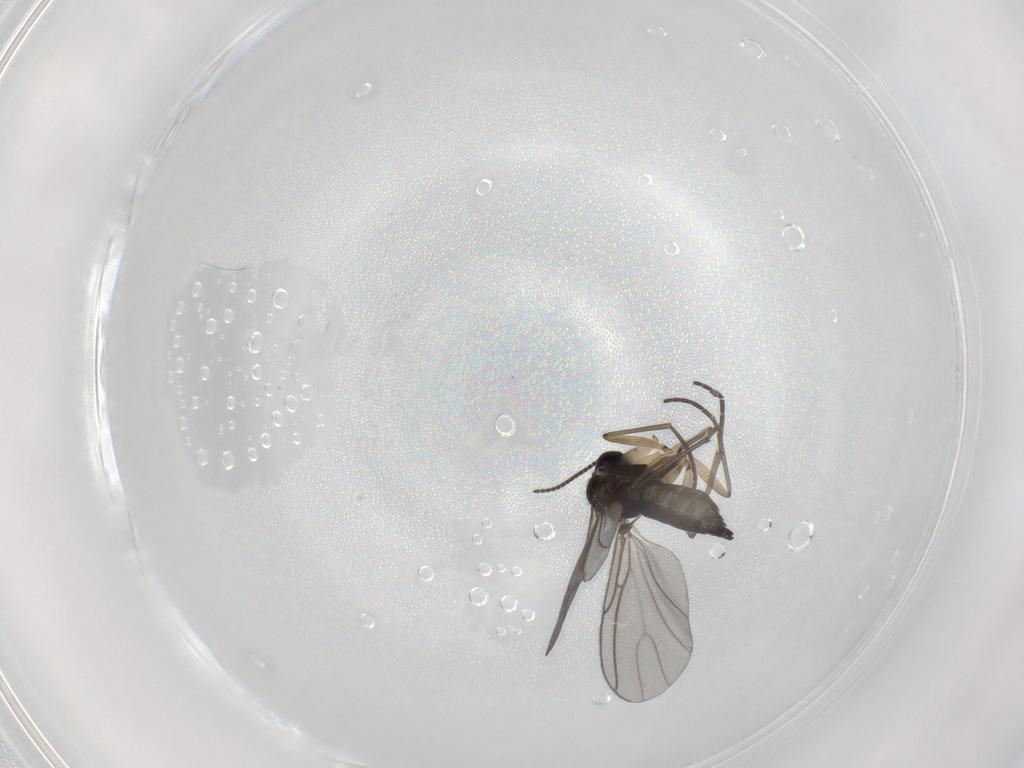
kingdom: Animalia
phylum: Arthropoda
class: Insecta
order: Diptera
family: Sciaridae
